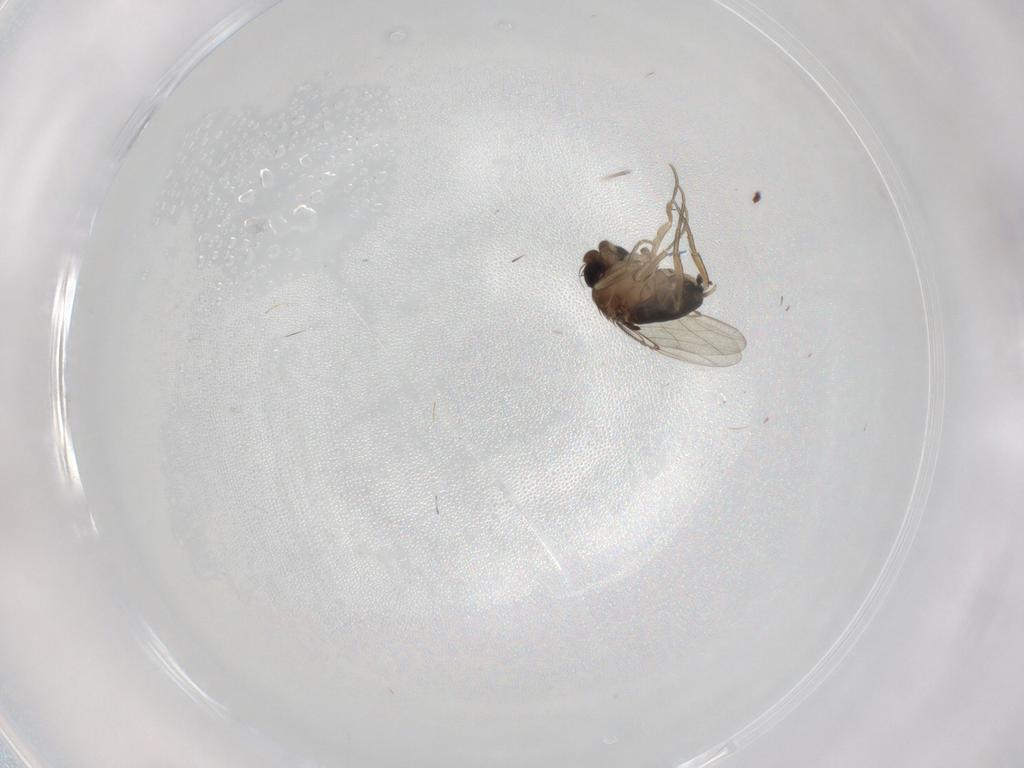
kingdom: Animalia
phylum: Arthropoda
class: Insecta
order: Diptera
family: Phoridae
